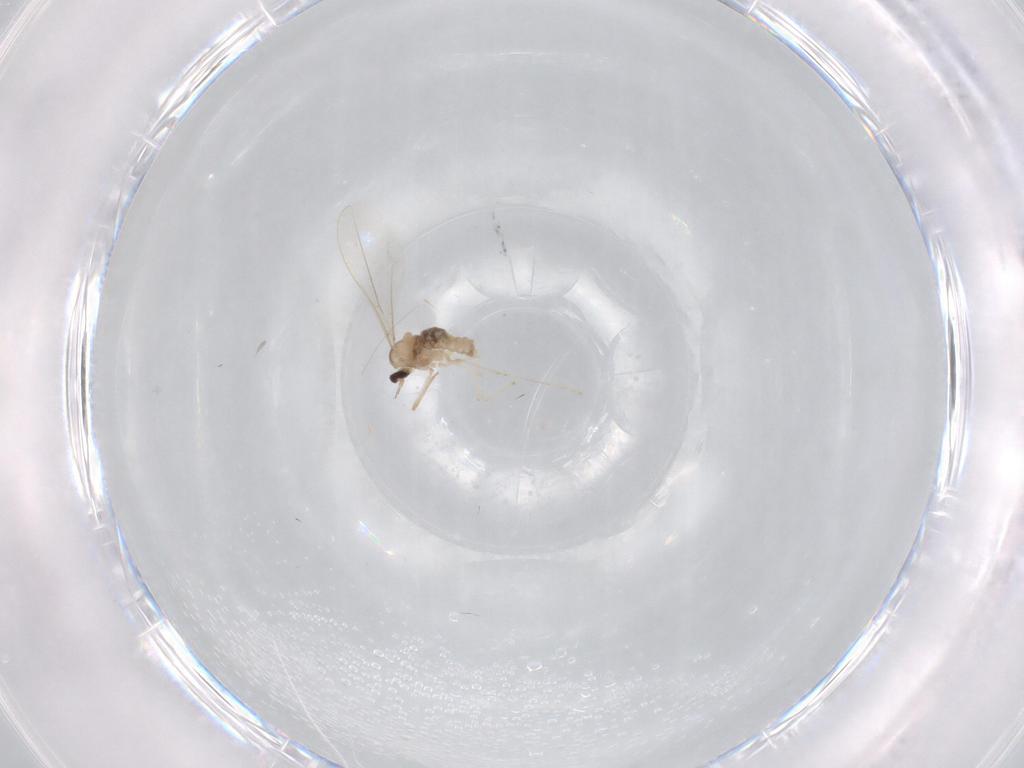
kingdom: Animalia
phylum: Arthropoda
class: Insecta
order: Diptera
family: Cecidomyiidae
